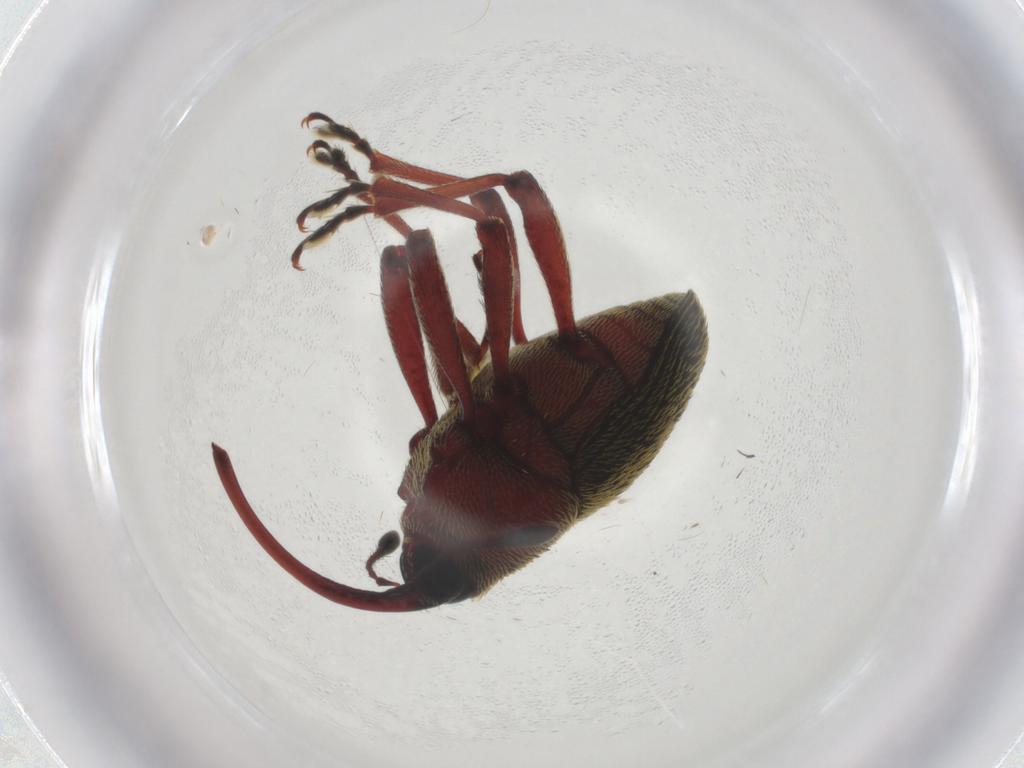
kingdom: Animalia
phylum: Arthropoda
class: Insecta
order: Coleoptera
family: Curculionidae
